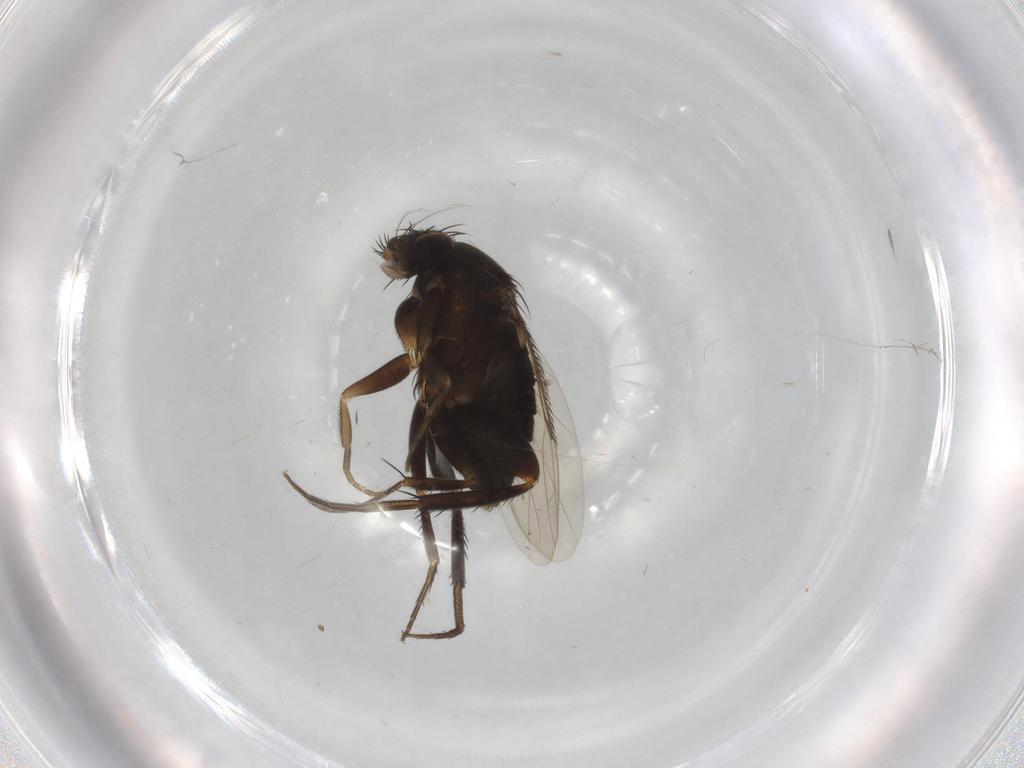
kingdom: Animalia
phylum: Arthropoda
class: Insecta
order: Diptera
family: Phoridae
